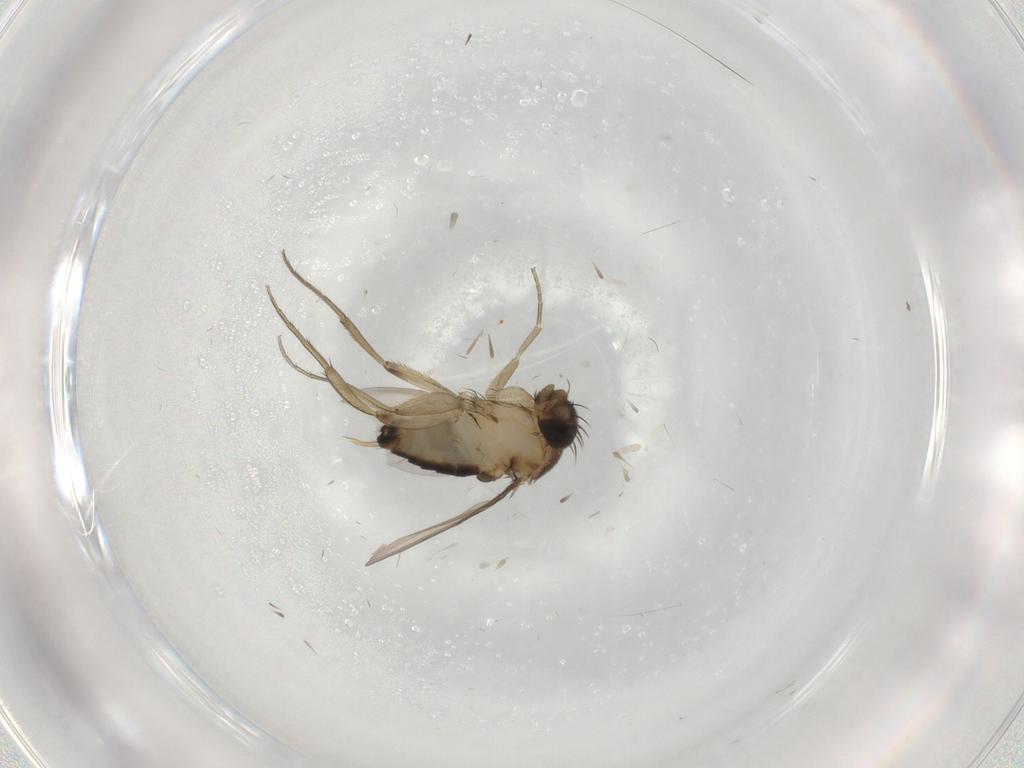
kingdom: Animalia
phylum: Arthropoda
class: Insecta
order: Diptera
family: Phoridae
